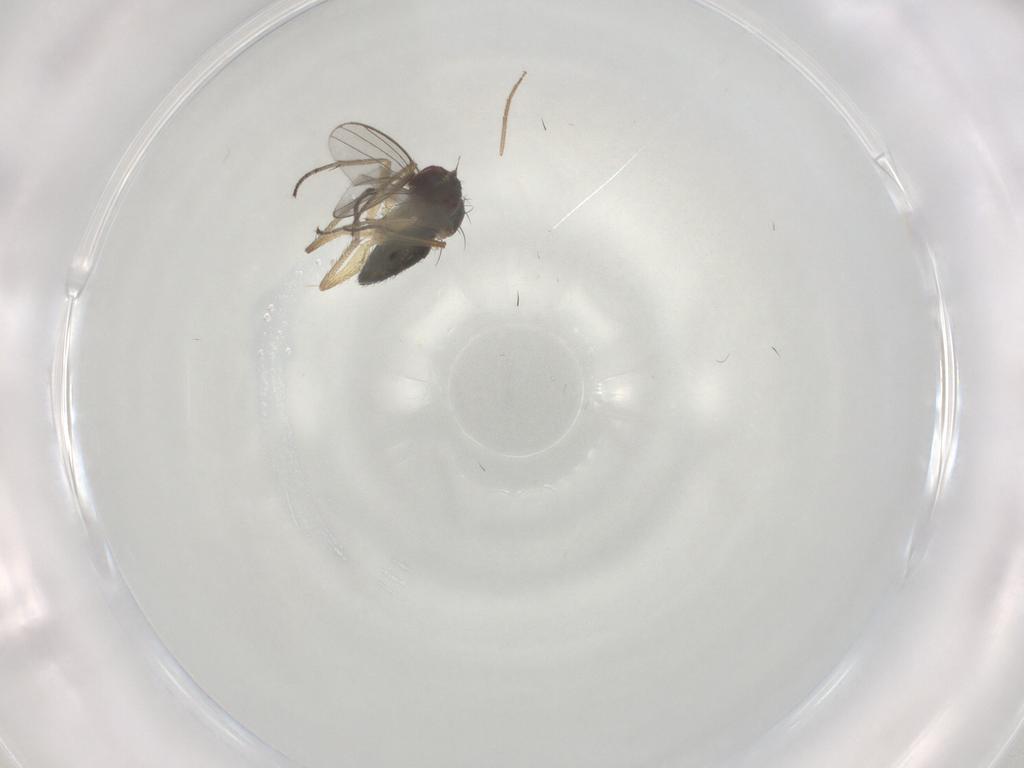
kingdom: Animalia
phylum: Arthropoda
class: Insecta
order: Diptera
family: Dolichopodidae
